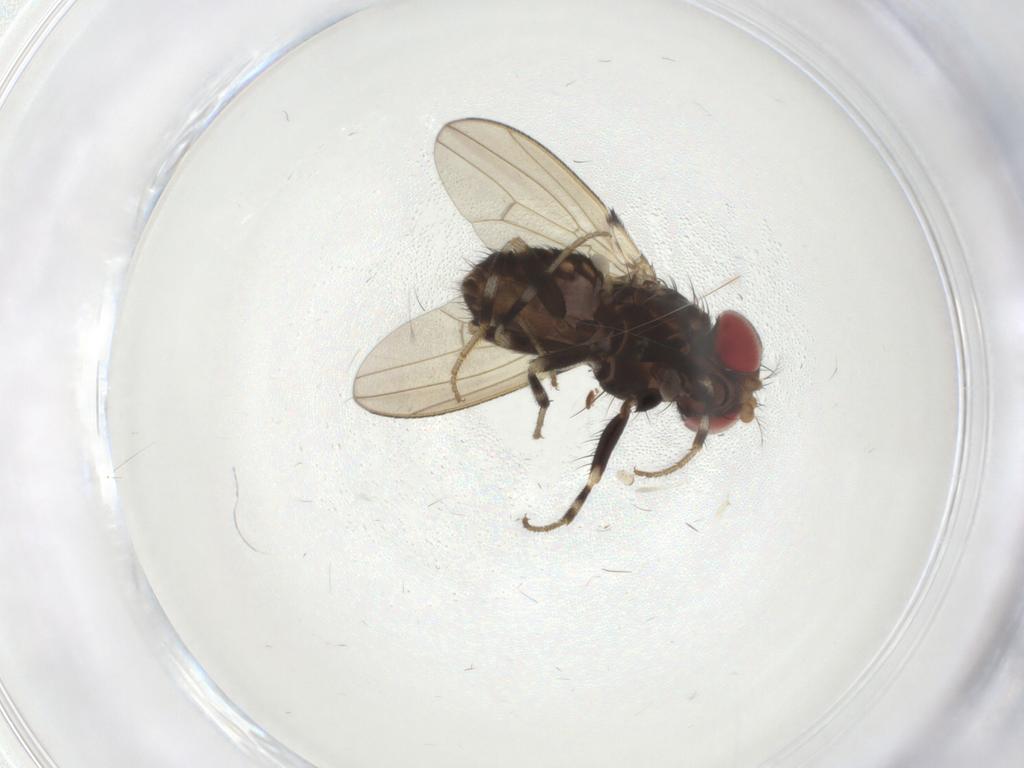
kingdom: Animalia
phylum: Arthropoda
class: Insecta
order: Diptera
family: Drosophilidae
